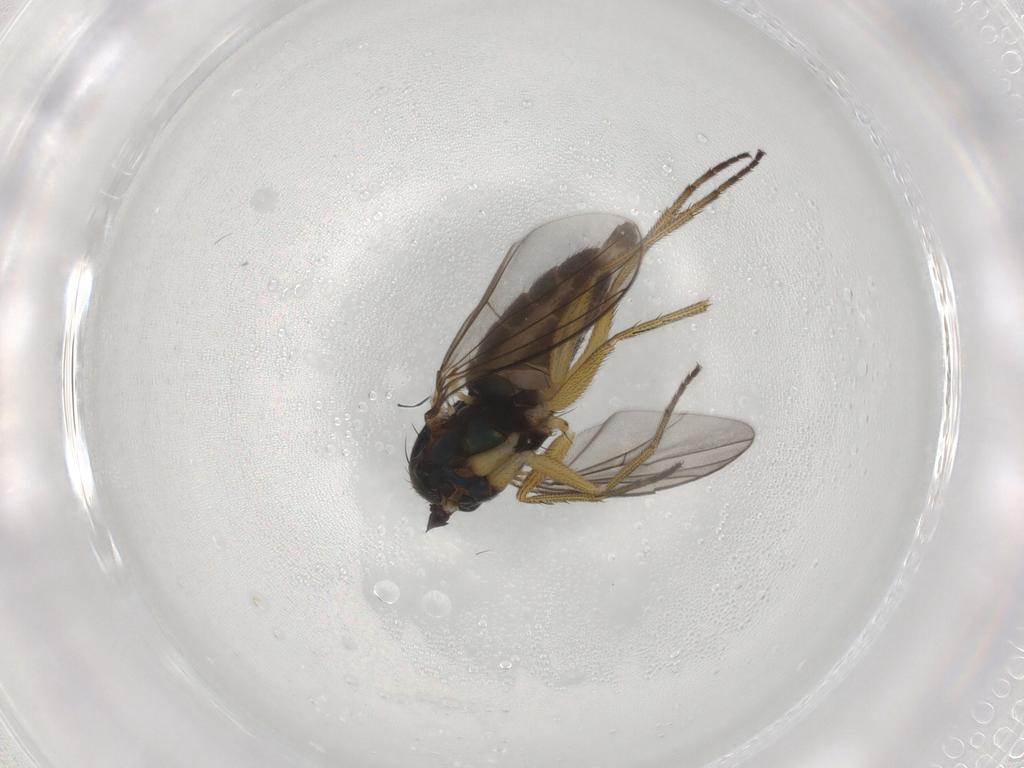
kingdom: Animalia
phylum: Arthropoda
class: Insecta
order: Diptera
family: Dolichopodidae
